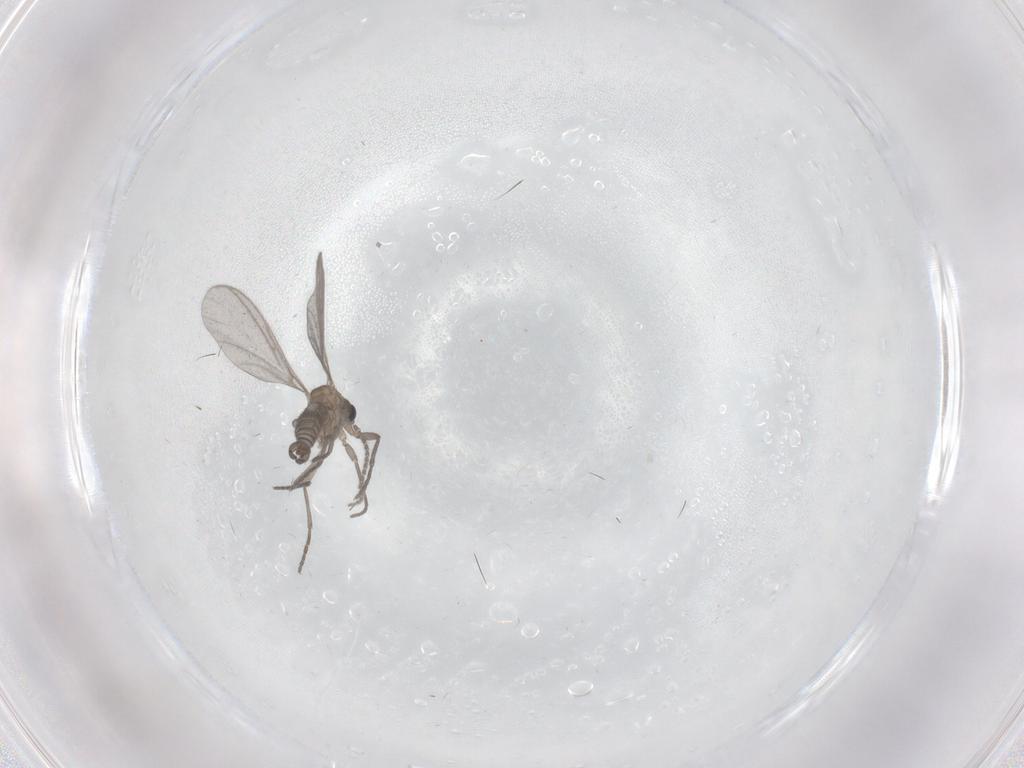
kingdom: Animalia
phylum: Arthropoda
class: Insecta
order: Diptera
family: Sciaridae
